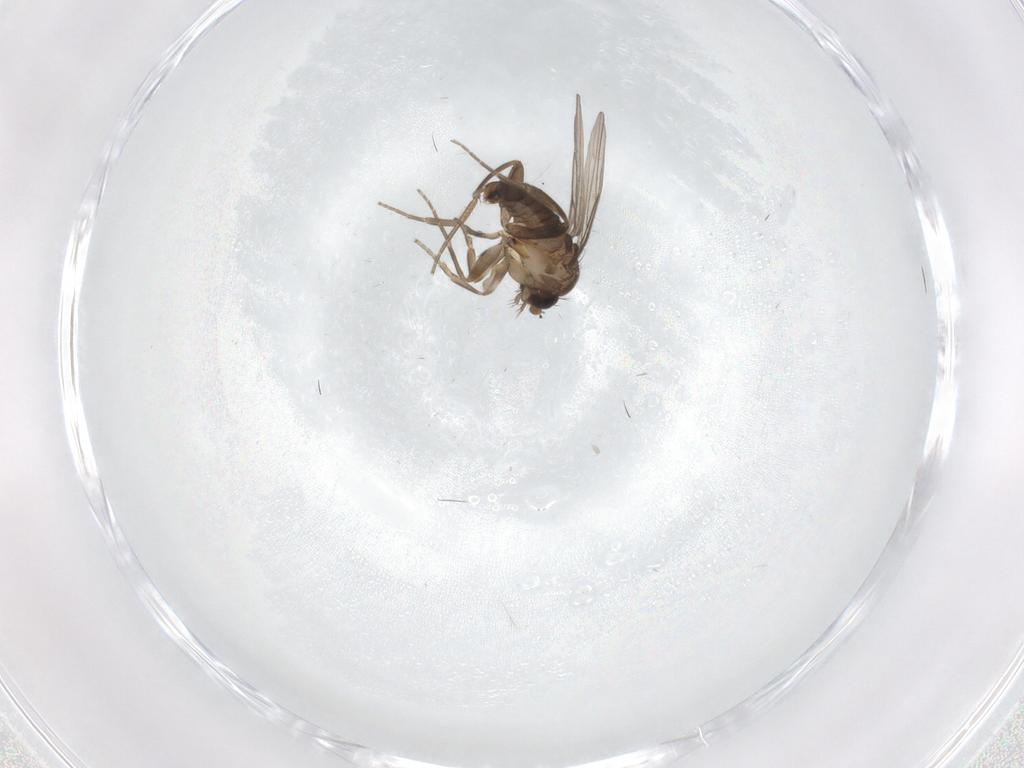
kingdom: Animalia
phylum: Arthropoda
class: Insecta
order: Diptera
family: Phoridae
